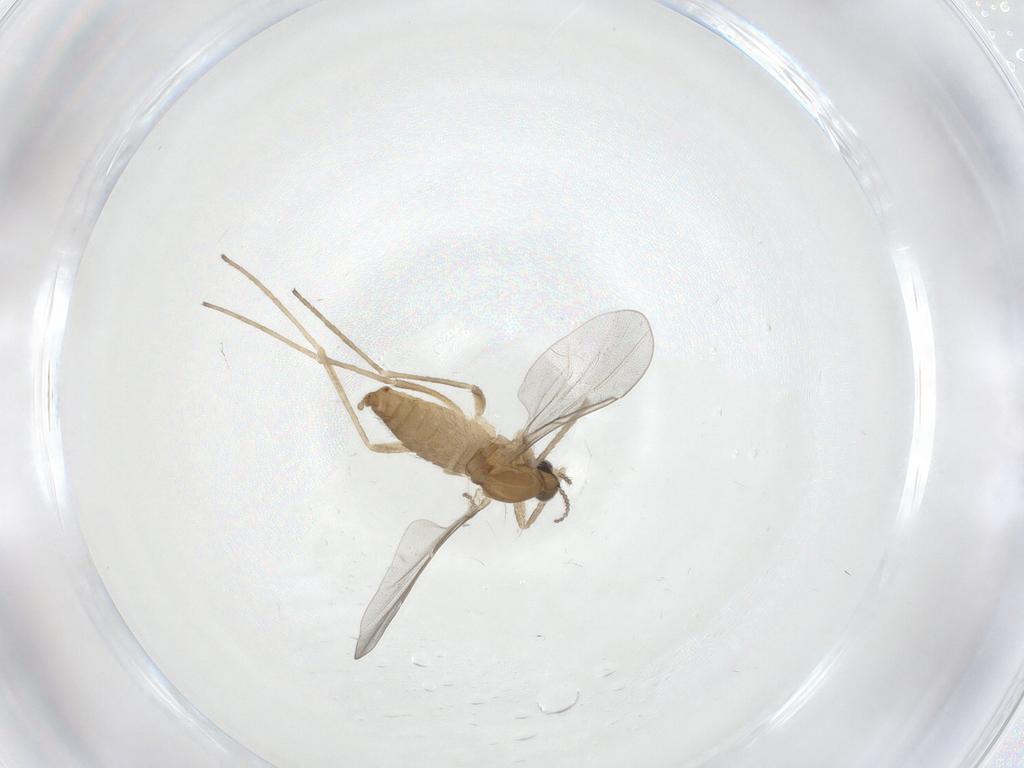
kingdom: Animalia
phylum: Arthropoda
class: Insecta
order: Diptera
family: Cecidomyiidae
